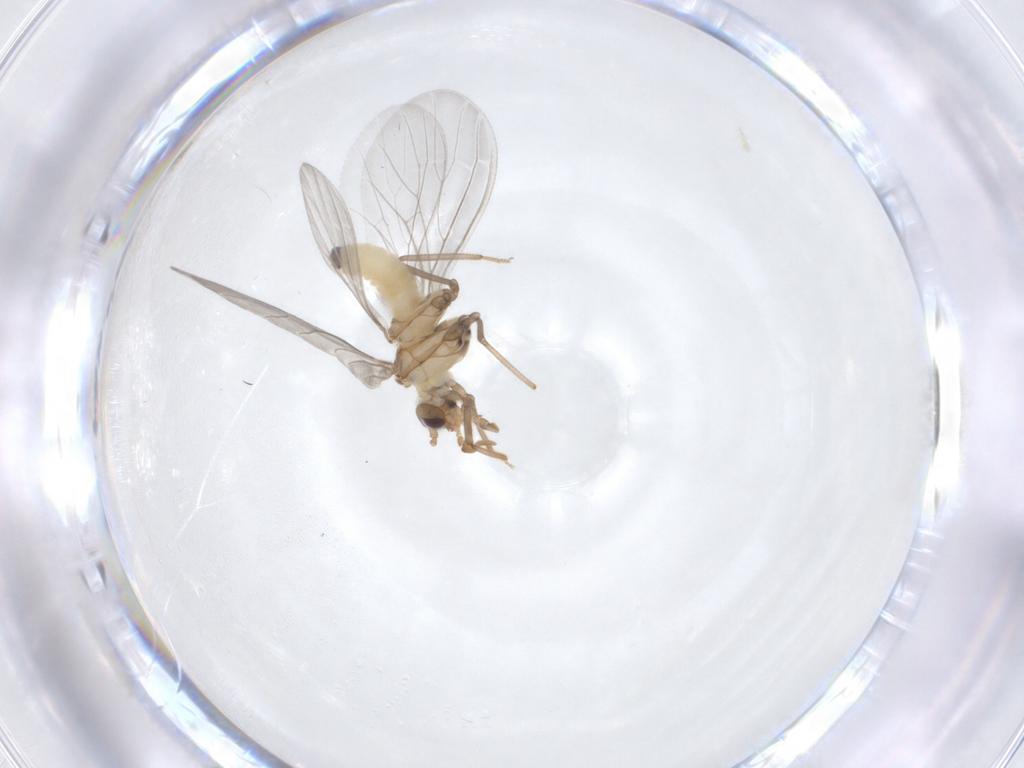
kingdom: Animalia
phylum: Arthropoda
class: Insecta
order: Neuroptera
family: Coniopterygidae
